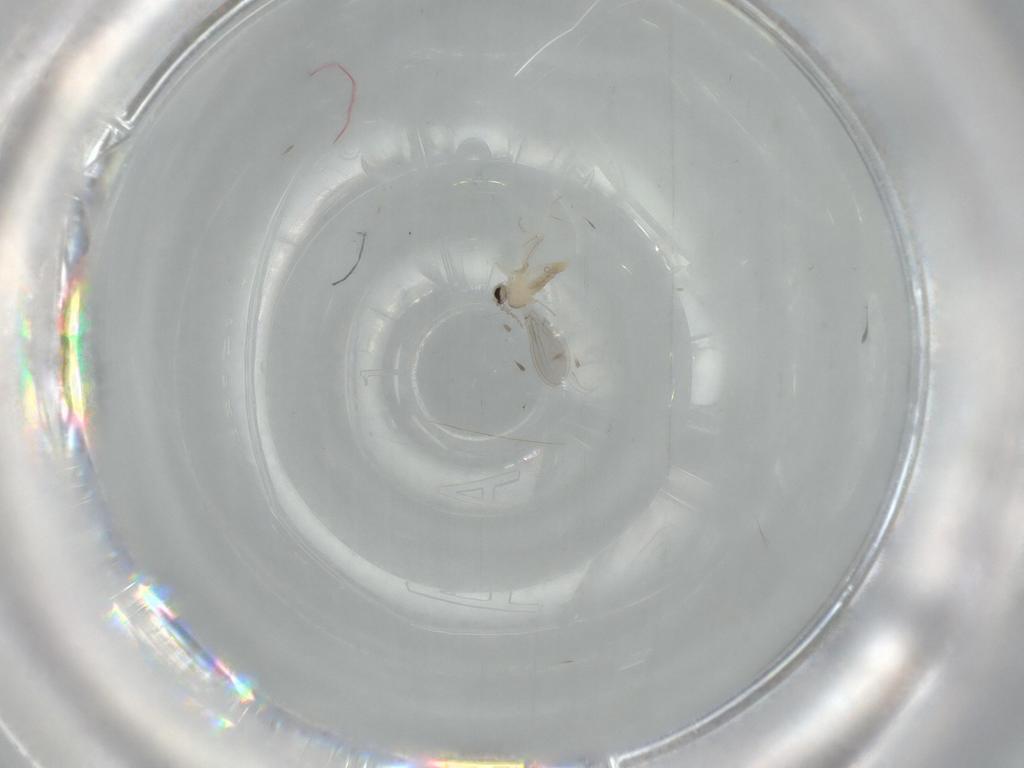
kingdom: Animalia
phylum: Arthropoda
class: Insecta
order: Diptera
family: Cecidomyiidae
